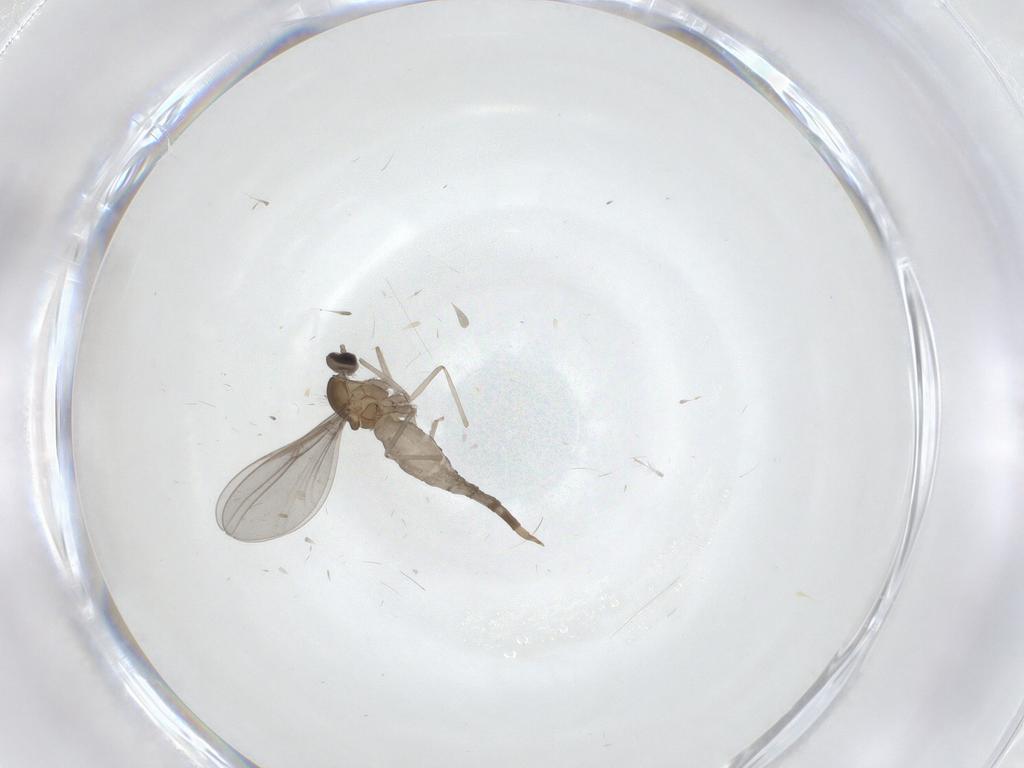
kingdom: Animalia
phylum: Arthropoda
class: Insecta
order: Diptera
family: Cecidomyiidae
